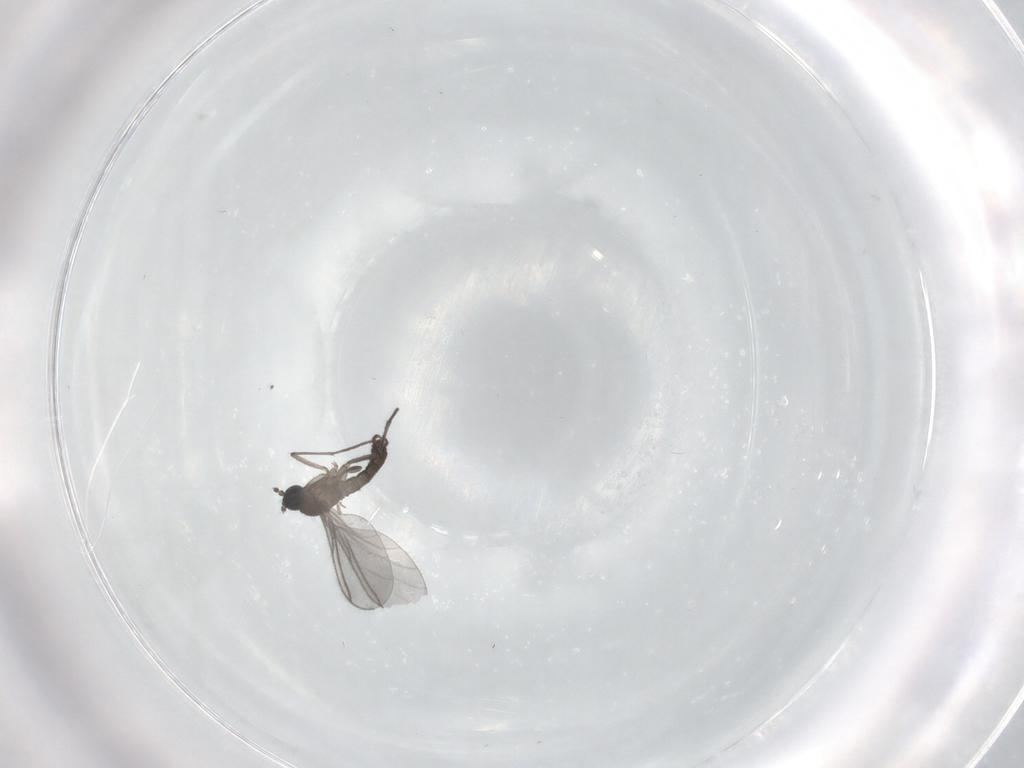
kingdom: Animalia
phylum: Arthropoda
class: Insecta
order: Diptera
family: Sciaridae
